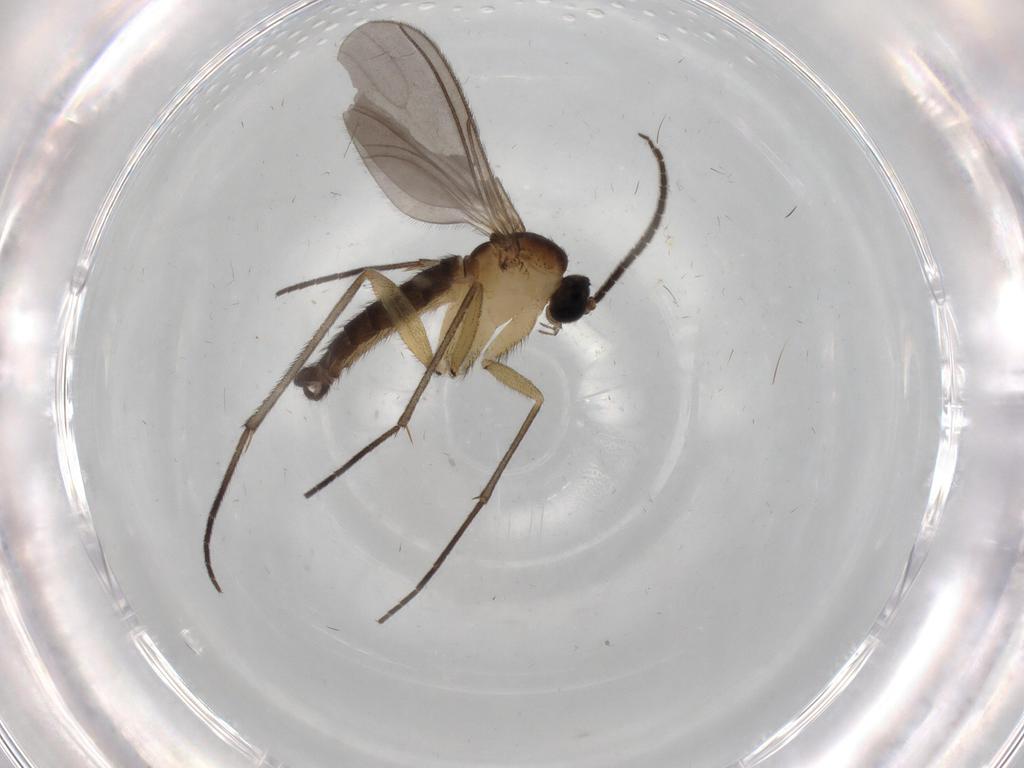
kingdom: Animalia
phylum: Arthropoda
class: Insecta
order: Diptera
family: Sciaridae
